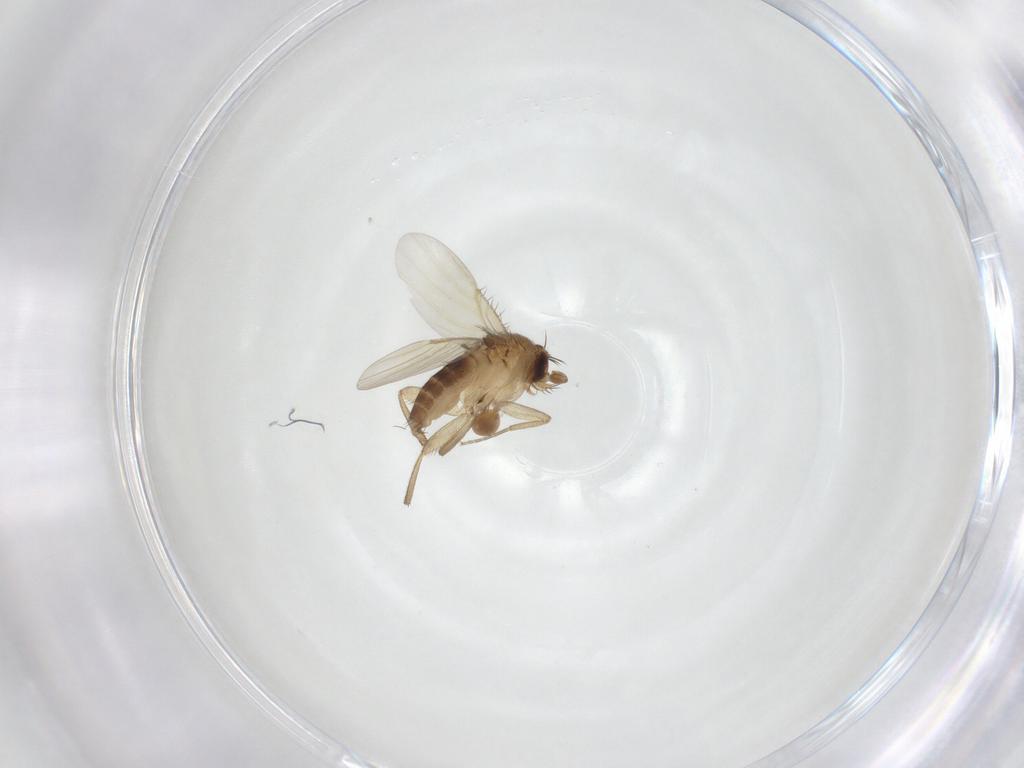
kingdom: Animalia
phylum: Arthropoda
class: Insecta
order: Diptera
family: Phoridae
